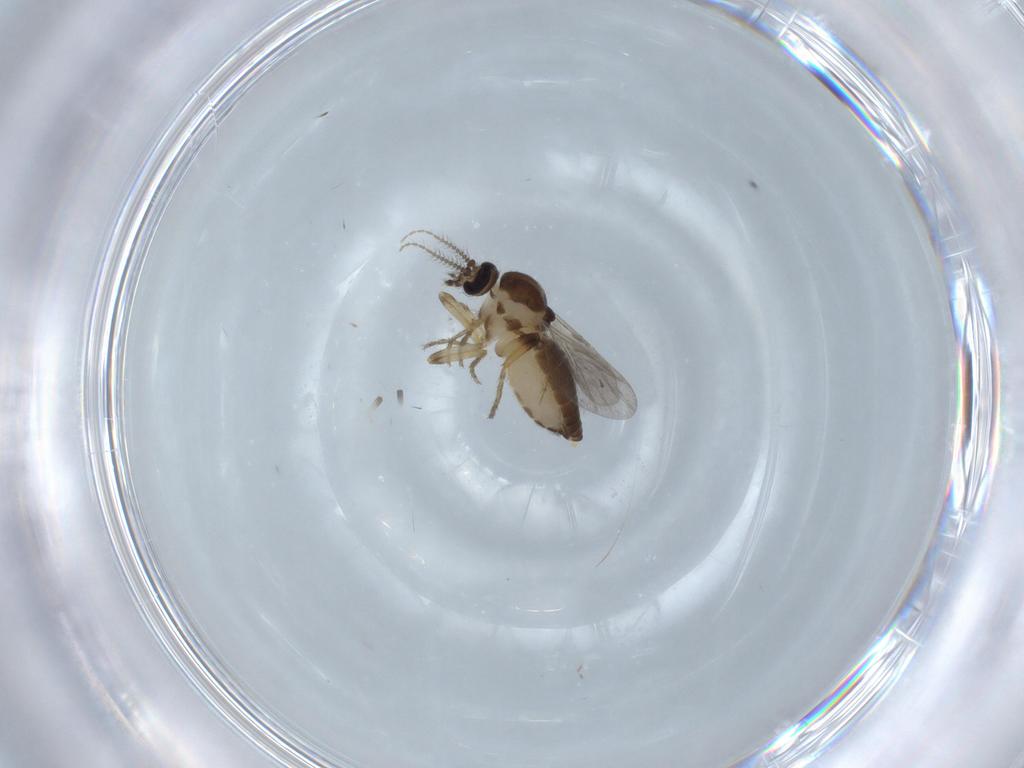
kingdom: Animalia
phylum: Arthropoda
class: Insecta
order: Diptera
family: Ceratopogonidae
